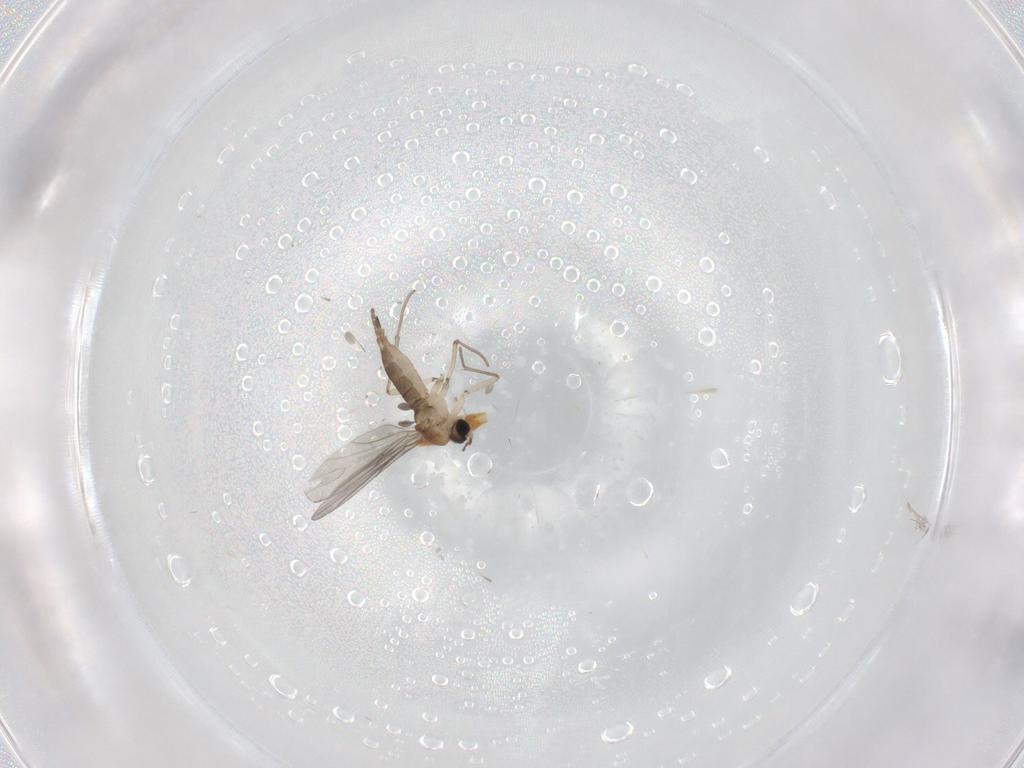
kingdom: Animalia
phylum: Arthropoda
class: Insecta
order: Diptera
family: Sciaridae
